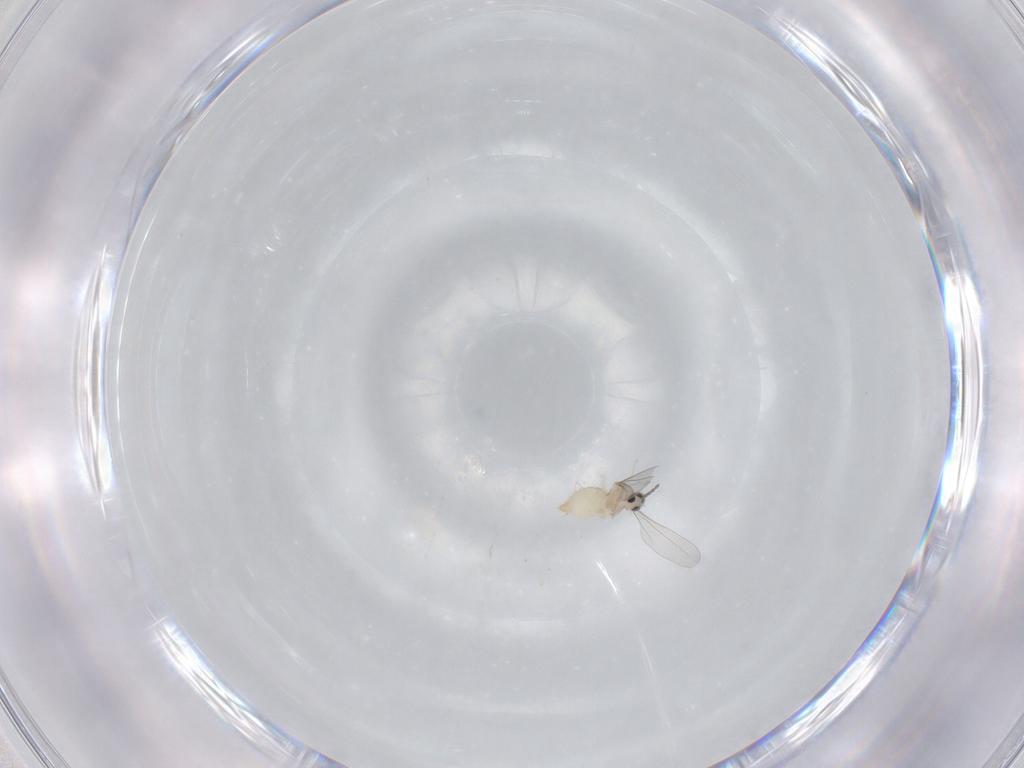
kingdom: Animalia
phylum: Arthropoda
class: Insecta
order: Diptera
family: Cecidomyiidae
